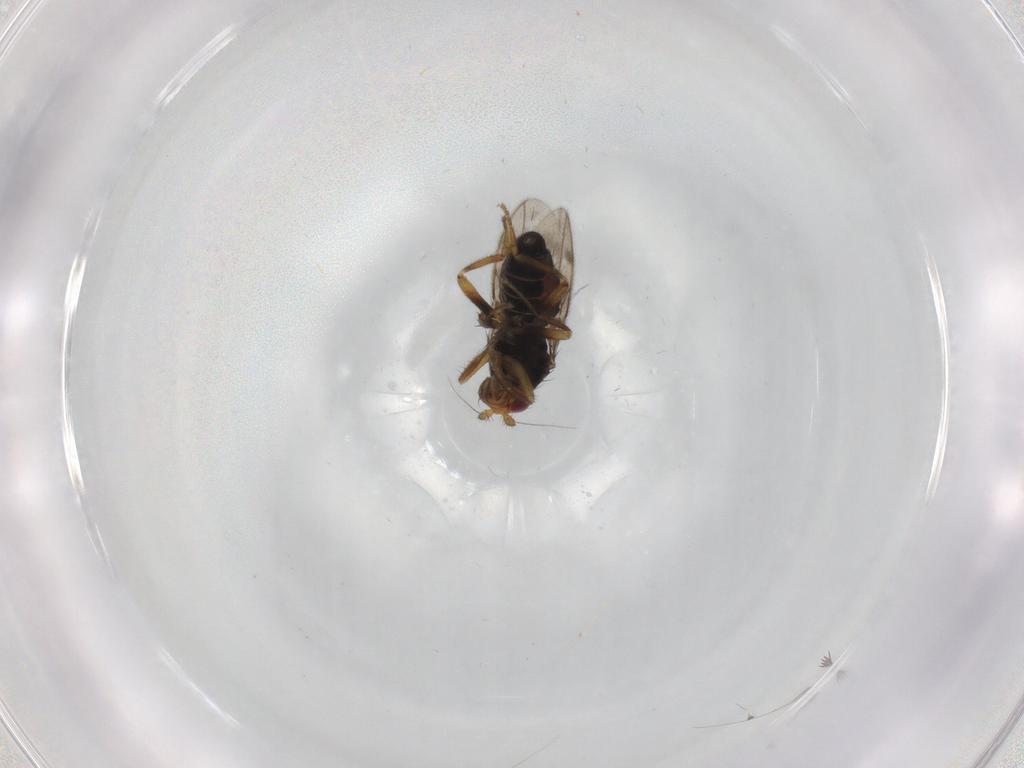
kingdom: Animalia
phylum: Arthropoda
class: Insecta
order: Diptera
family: Sphaeroceridae
